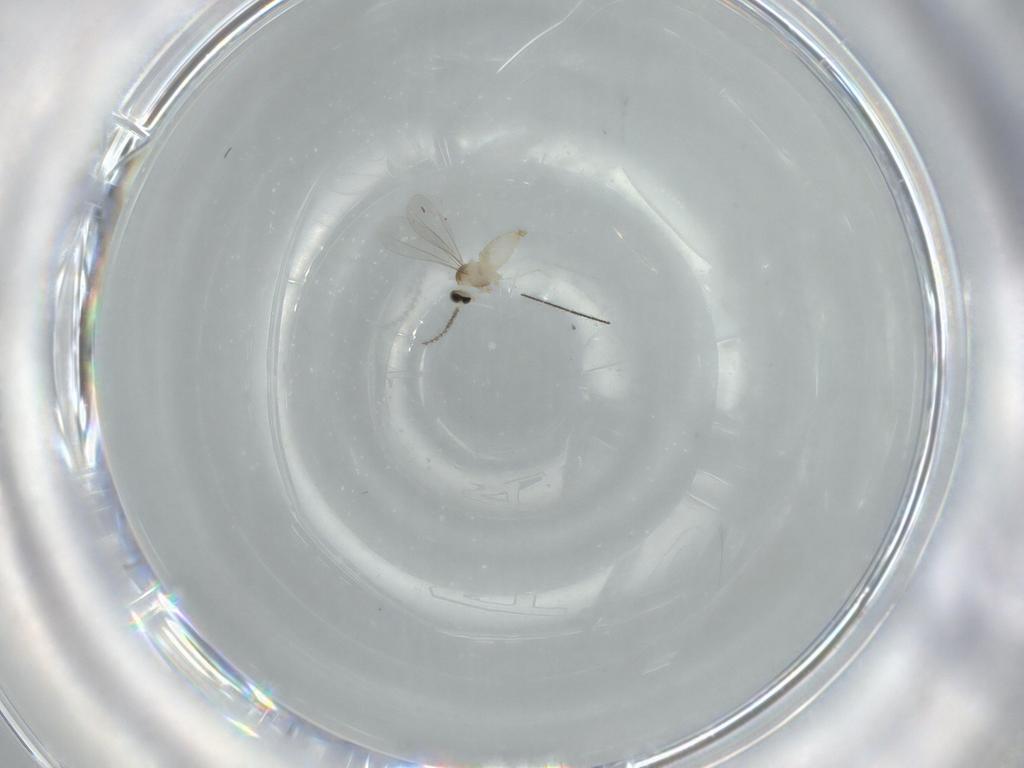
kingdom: Animalia
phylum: Arthropoda
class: Insecta
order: Diptera
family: Cecidomyiidae
